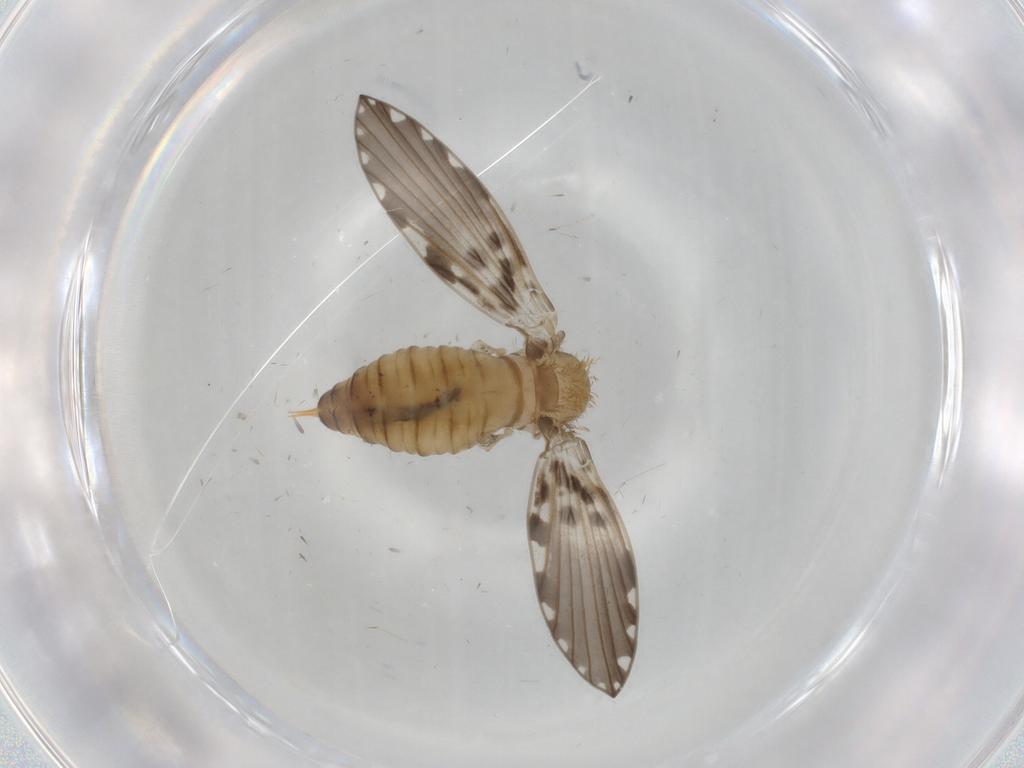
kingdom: Animalia
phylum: Arthropoda
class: Insecta
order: Diptera
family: Psychodidae
